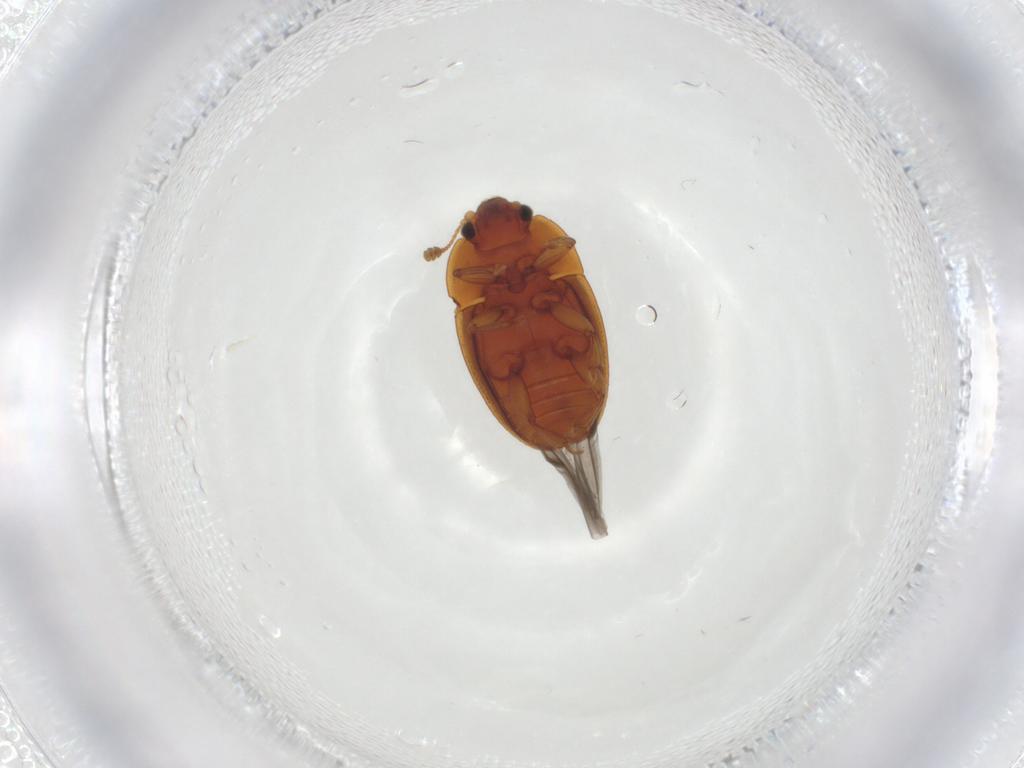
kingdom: Animalia
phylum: Arthropoda
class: Insecta
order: Coleoptera
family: Nitidulidae
